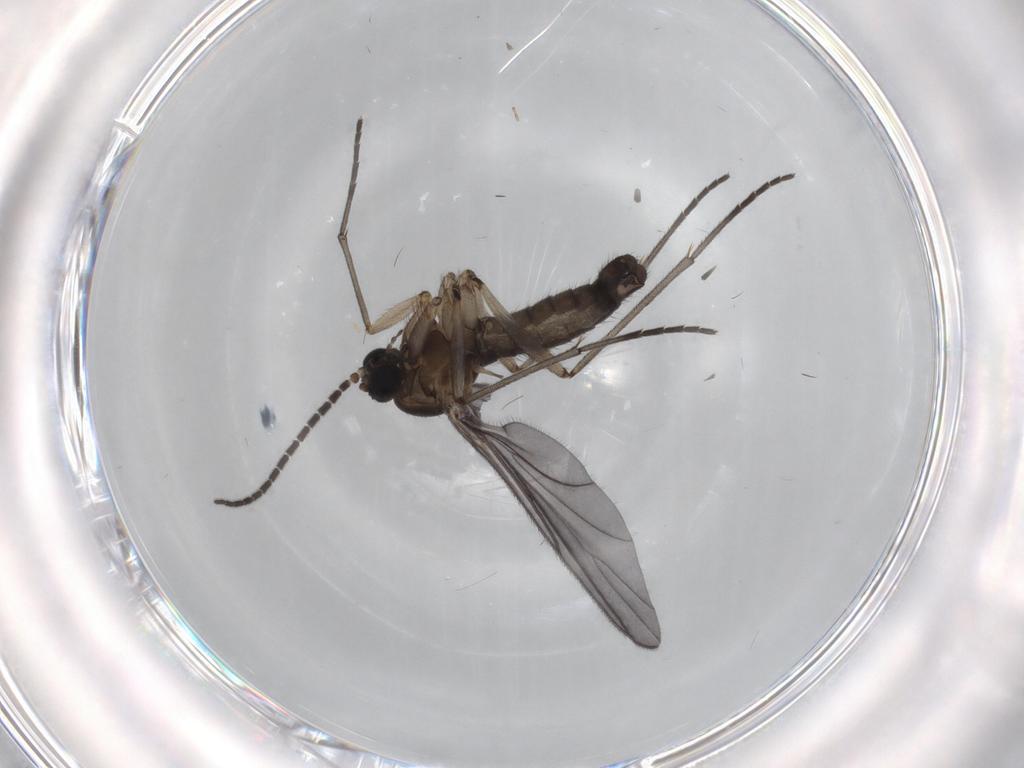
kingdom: Animalia
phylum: Arthropoda
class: Insecta
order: Diptera
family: Sciaridae
